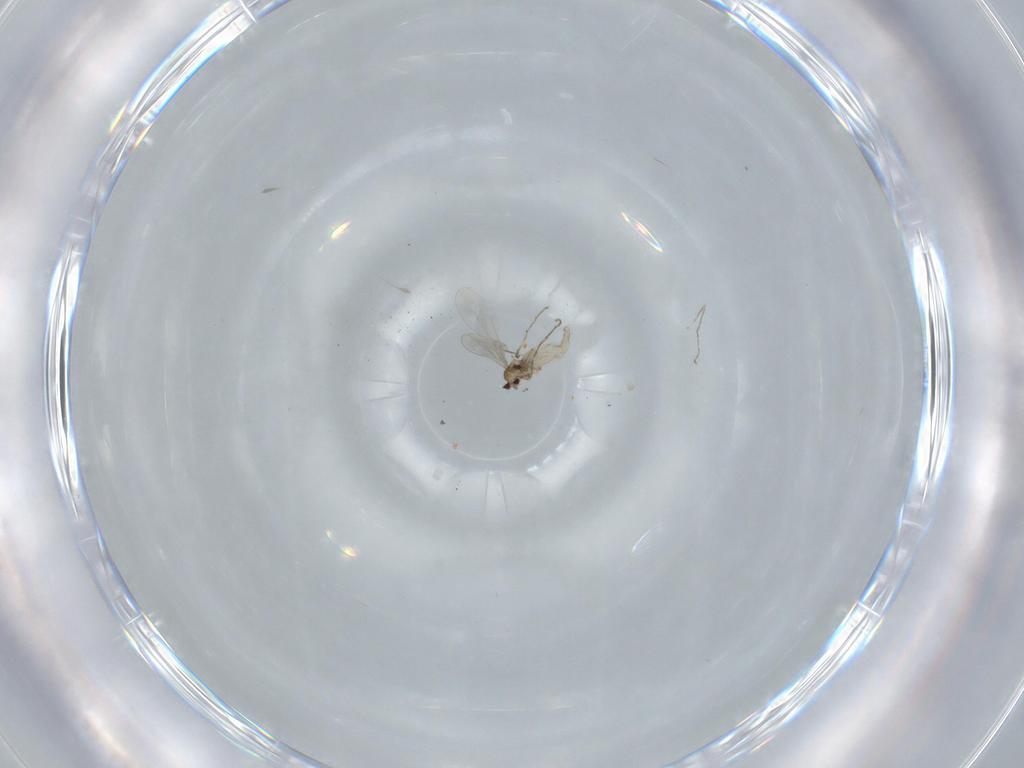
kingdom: Animalia
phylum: Arthropoda
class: Insecta
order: Diptera
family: Cecidomyiidae
